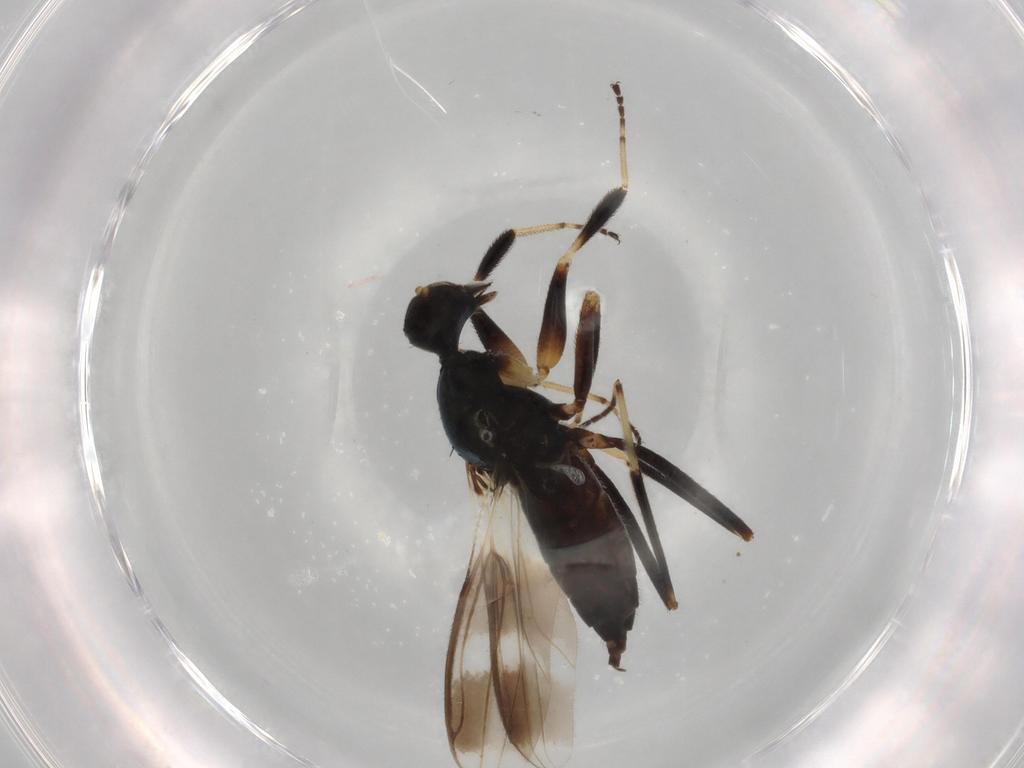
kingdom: Animalia
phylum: Arthropoda
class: Insecta
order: Diptera
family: Hybotidae
